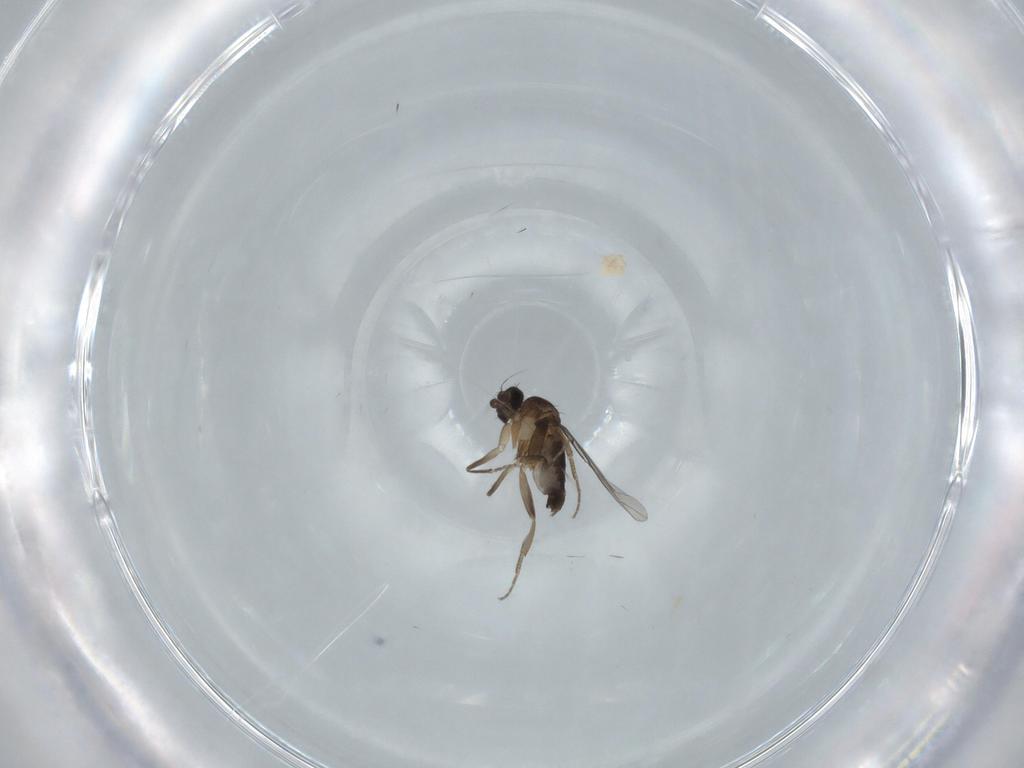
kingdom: Animalia
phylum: Arthropoda
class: Insecta
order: Diptera
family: Phoridae
